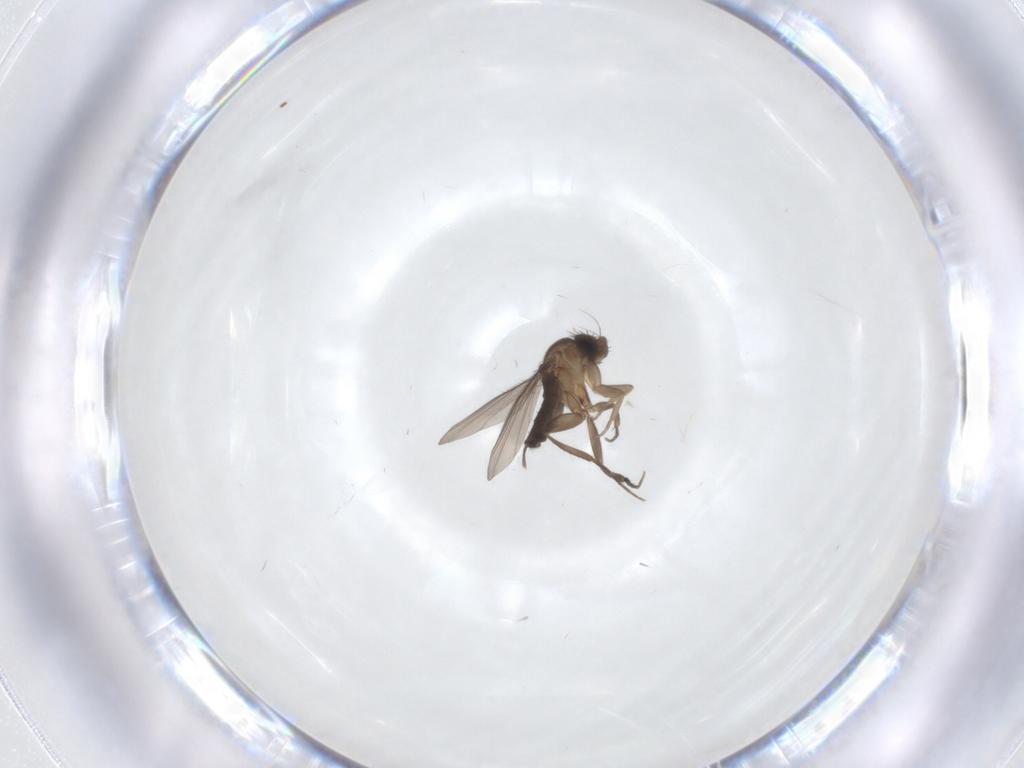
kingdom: Animalia
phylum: Arthropoda
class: Insecta
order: Diptera
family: Phoridae
